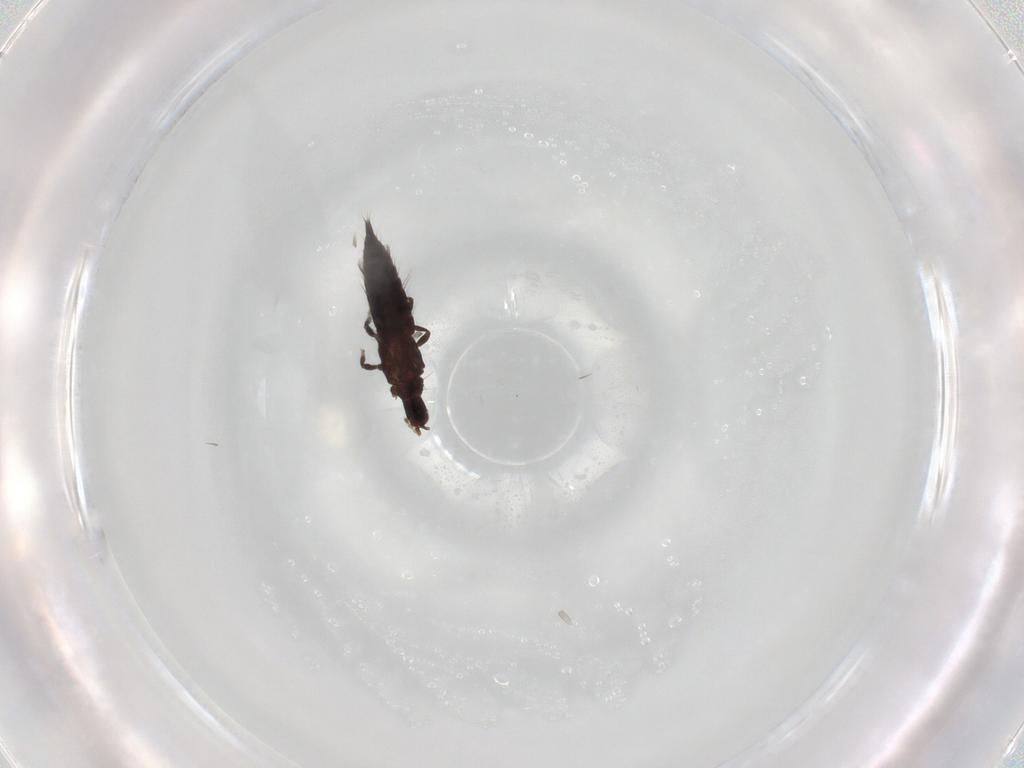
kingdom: Animalia
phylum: Arthropoda
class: Insecta
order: Thysanoptera
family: Phlaeothripidae
